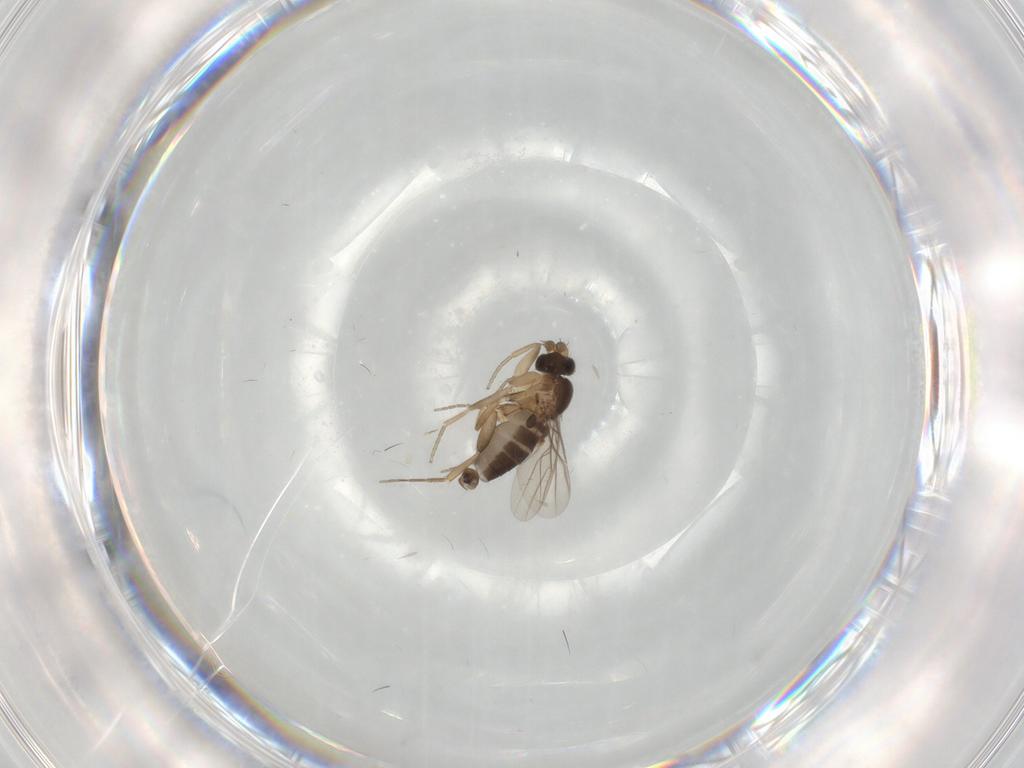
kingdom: Animalia
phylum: Arthropoda
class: Insecta
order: Diptera
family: Phoridae
